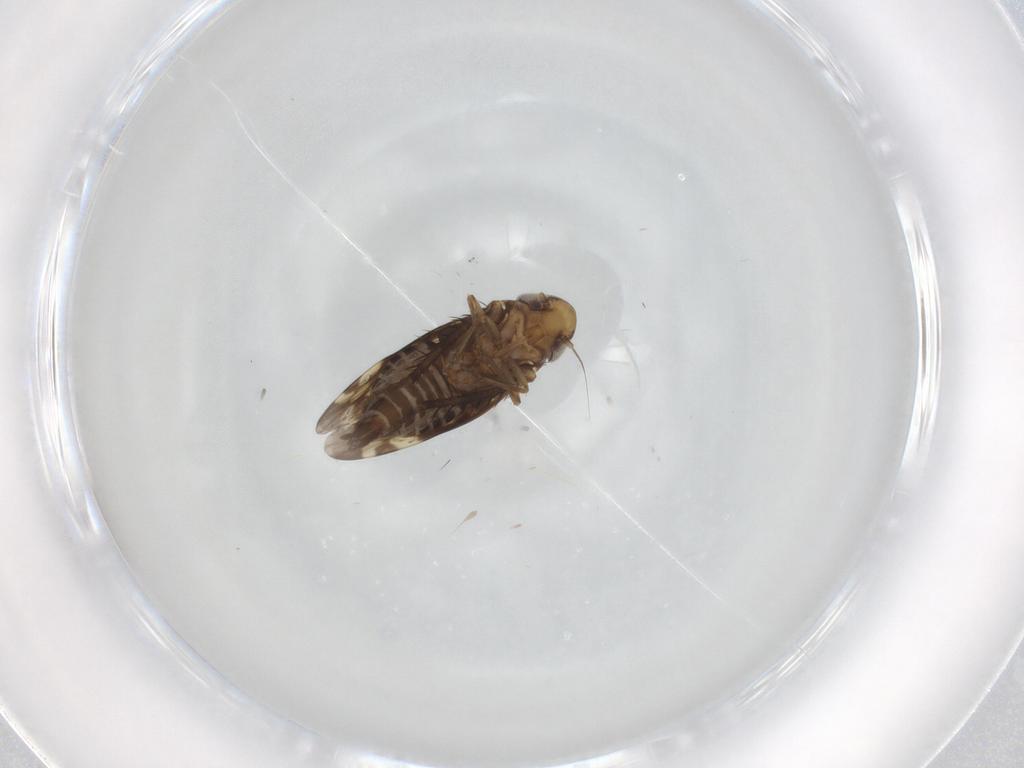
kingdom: Animalia
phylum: Arthropoda
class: Insecta
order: Hemiptera
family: Cicadellidae
